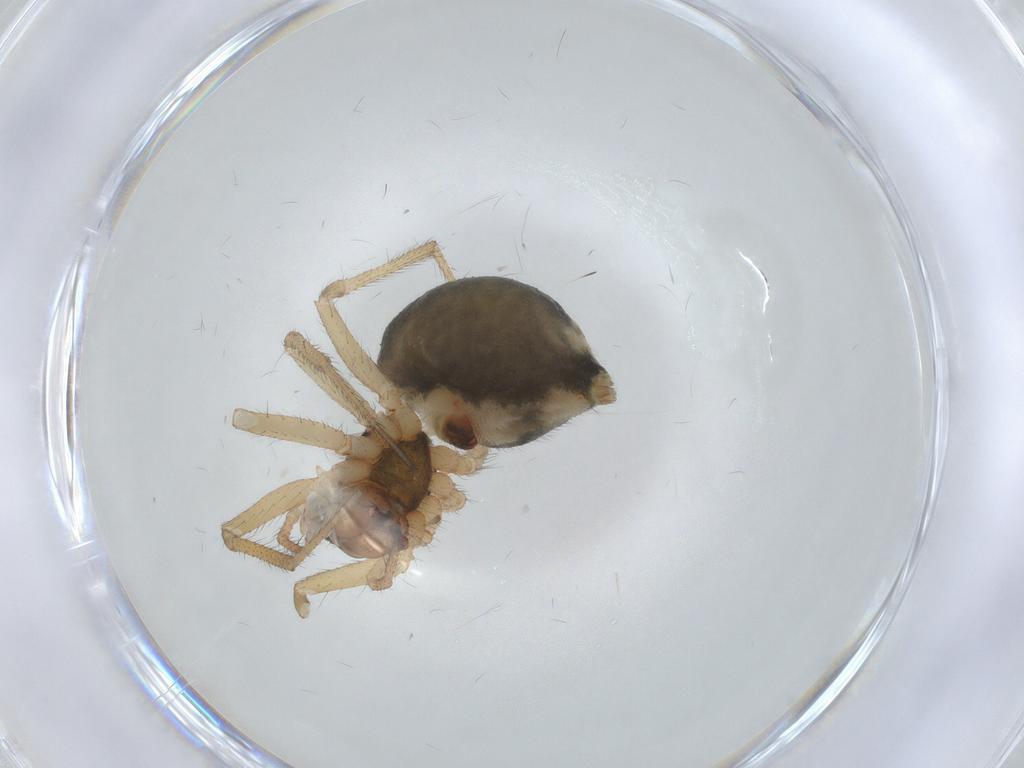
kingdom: Animalia
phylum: Arthropoda
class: Arachnida
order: Araneae
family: Linyphiidae
